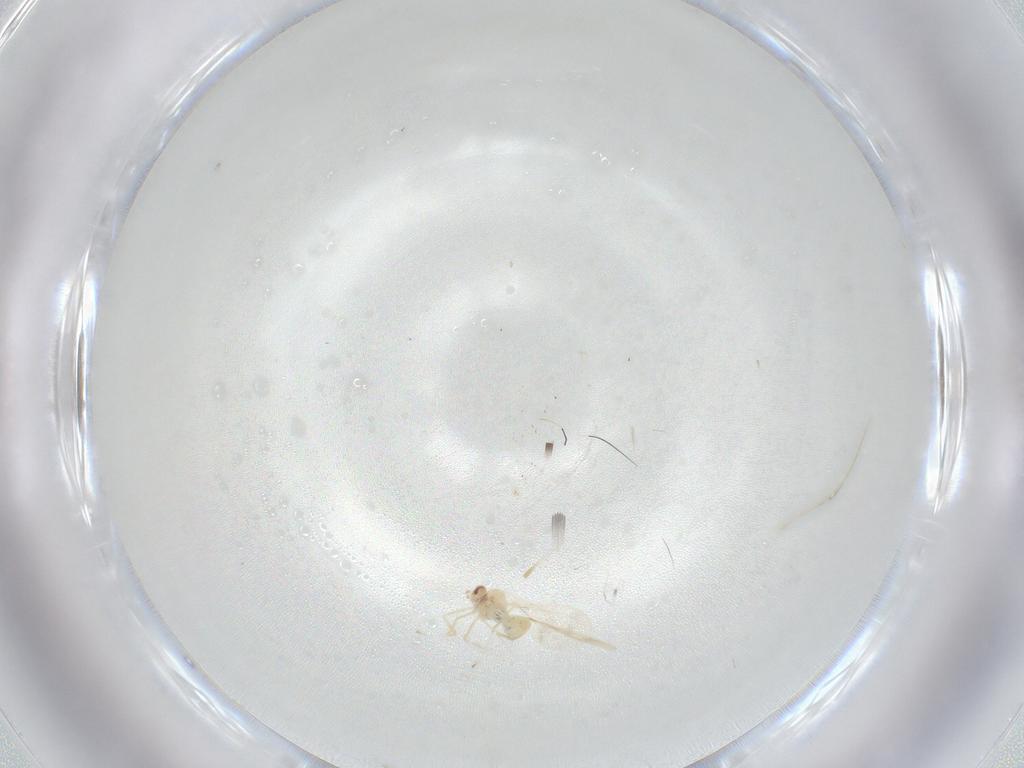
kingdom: Animalia
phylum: Arthropoda
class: Insecta
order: Diptera
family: Cecidomyiidae
